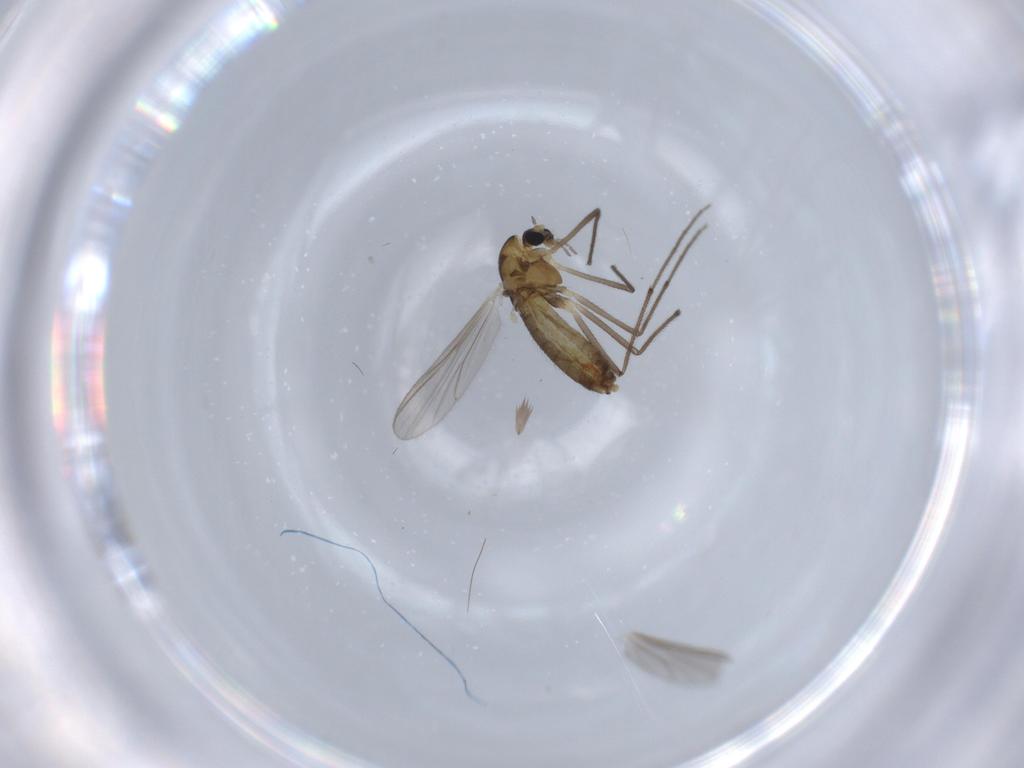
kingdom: Animalia
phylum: Arthropoda
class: Insecta
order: Diptera
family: Chironomidae
